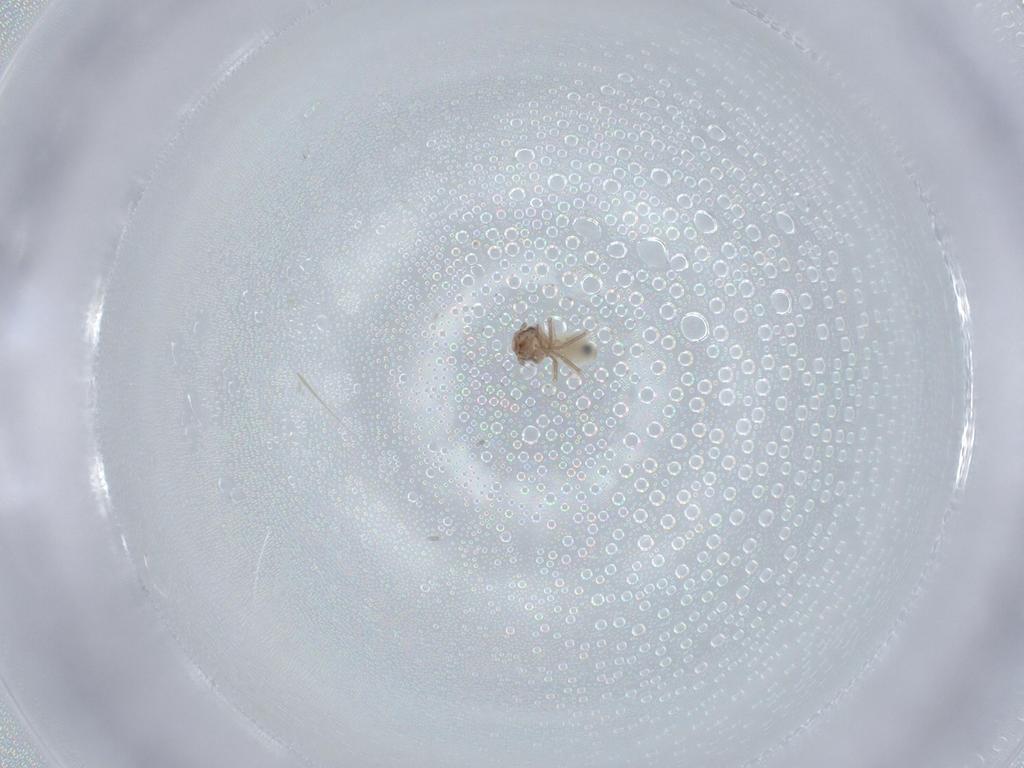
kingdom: Animalia
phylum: Arthropoda
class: Insecta
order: Psocodea
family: Lepidopsocidae
